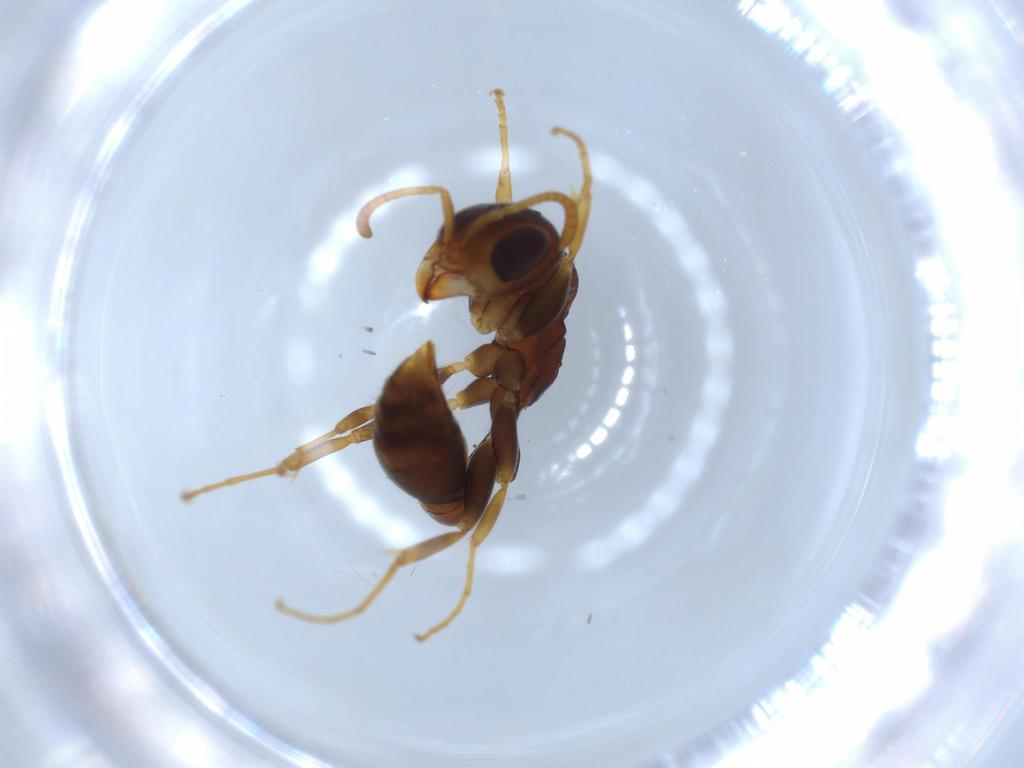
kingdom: Animalia
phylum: Arthropoda
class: Insecta
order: Hymenoptera
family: Formicidae
